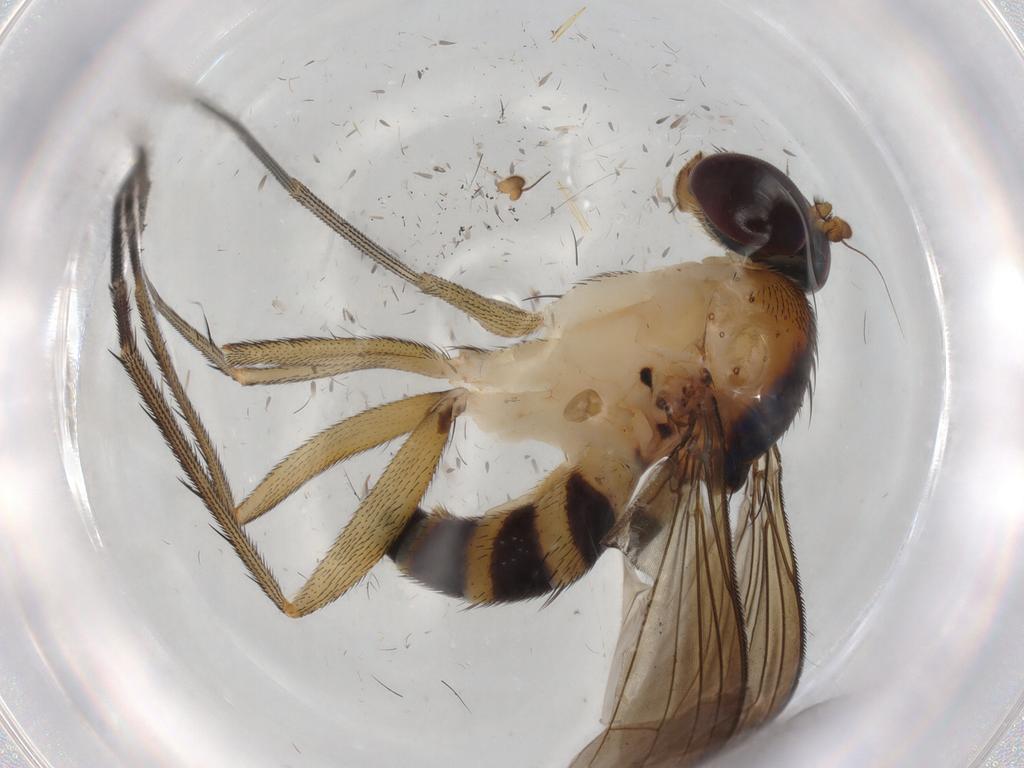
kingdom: Animalia
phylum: Arthropoda
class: Insecta
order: Diptera
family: Dolichopodidae
